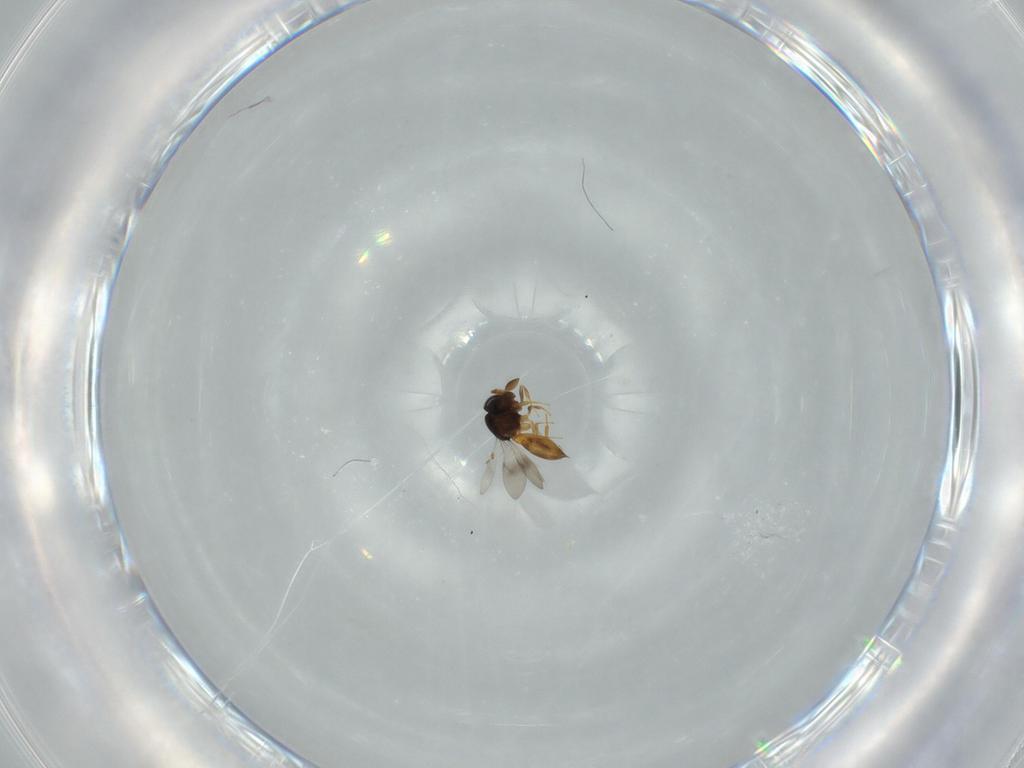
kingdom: Animalia
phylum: Arthropoda
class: Insecta
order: Hymenoptera
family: Scelionidae
